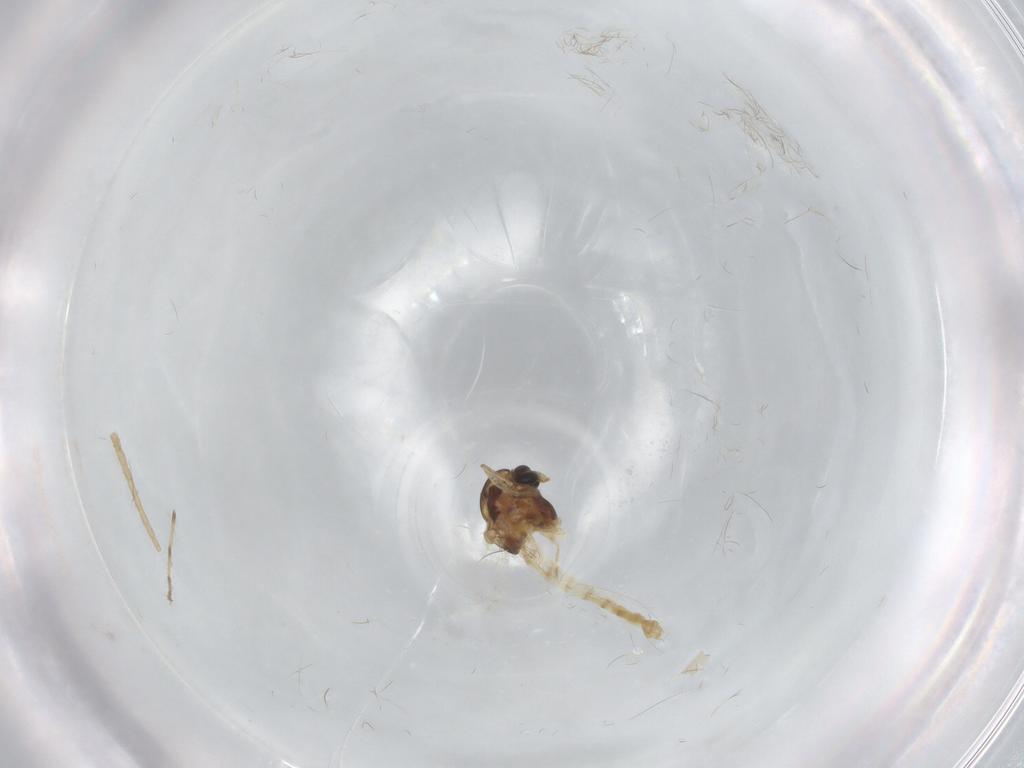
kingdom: Animalia
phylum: Arthropoda
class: Insecta
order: Diptera
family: Chironomidae
